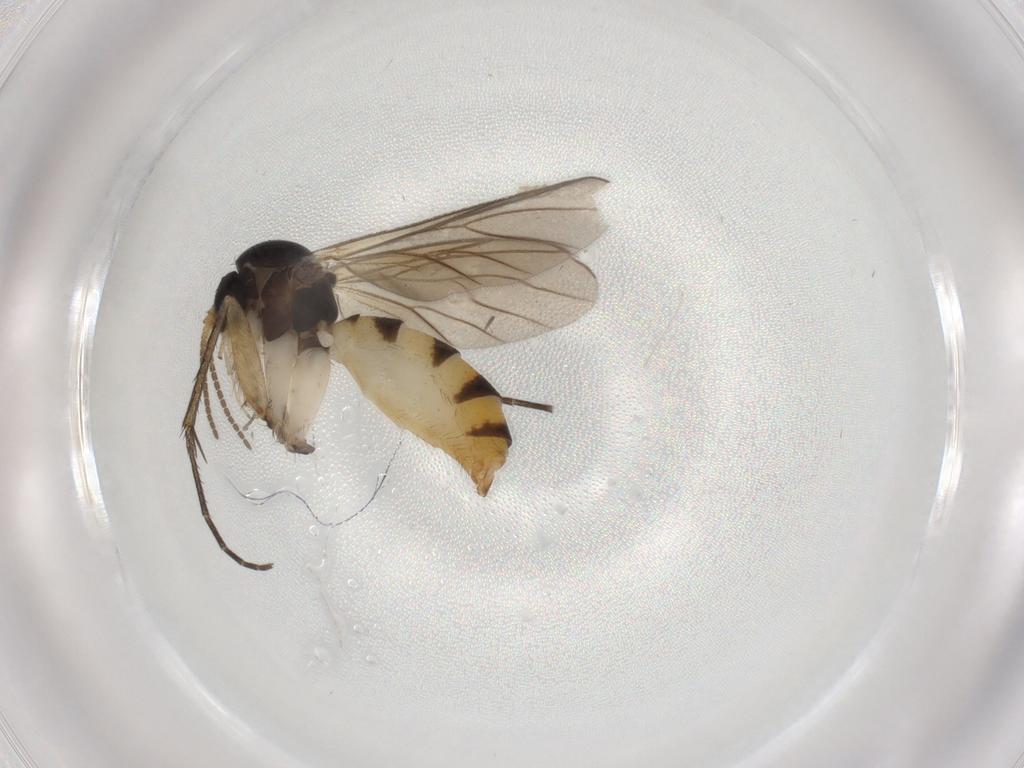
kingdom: Animalia
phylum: Arthropoda
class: Insecta
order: Diptera
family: Mycetophilidae
